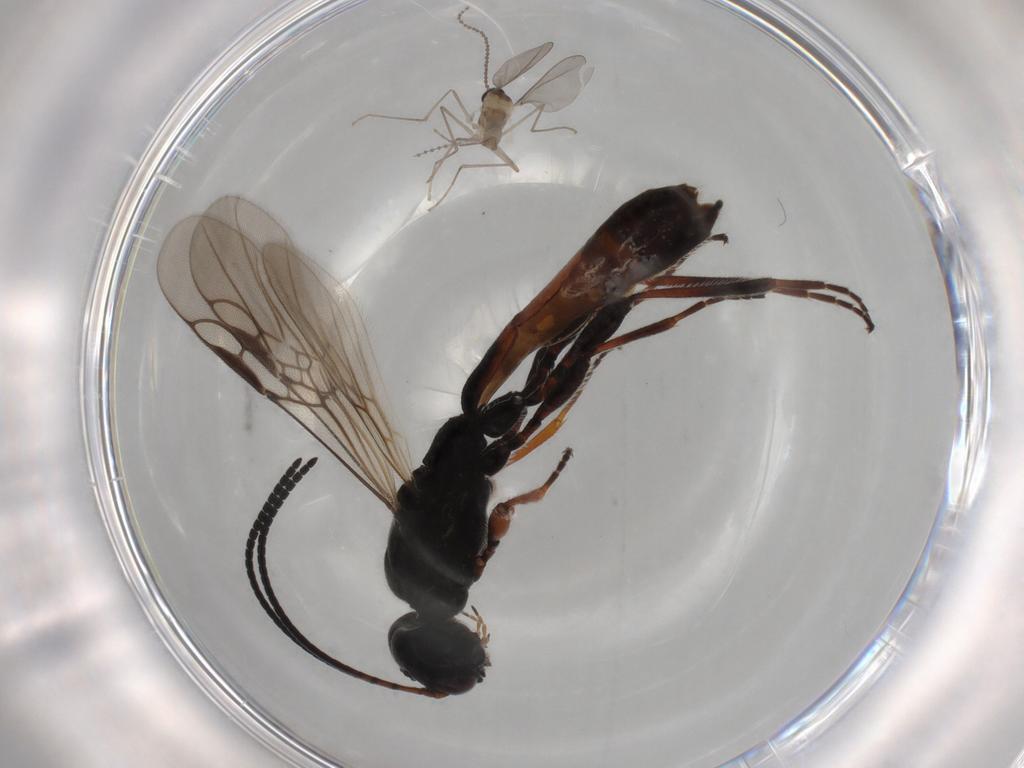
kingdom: Animalia
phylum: Arthropoda
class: Insecta
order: Hymenoptera
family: Braconidae
